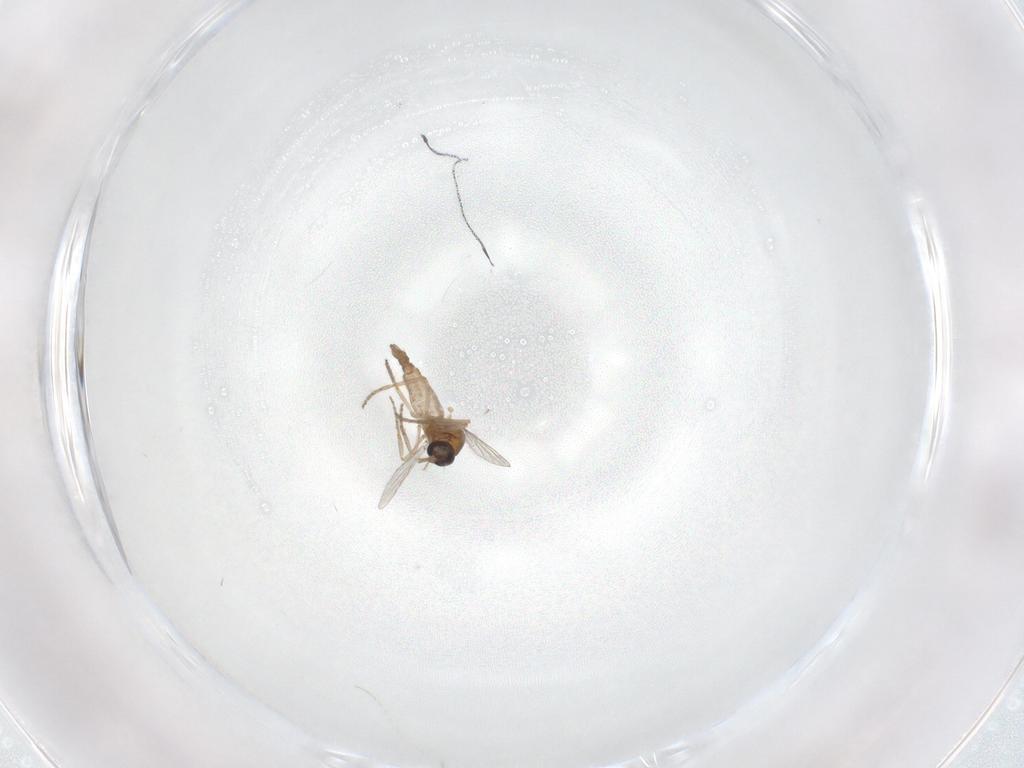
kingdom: Animalia
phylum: Arthropoda
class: Insecta
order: Diptera
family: Ceratopogonidae
